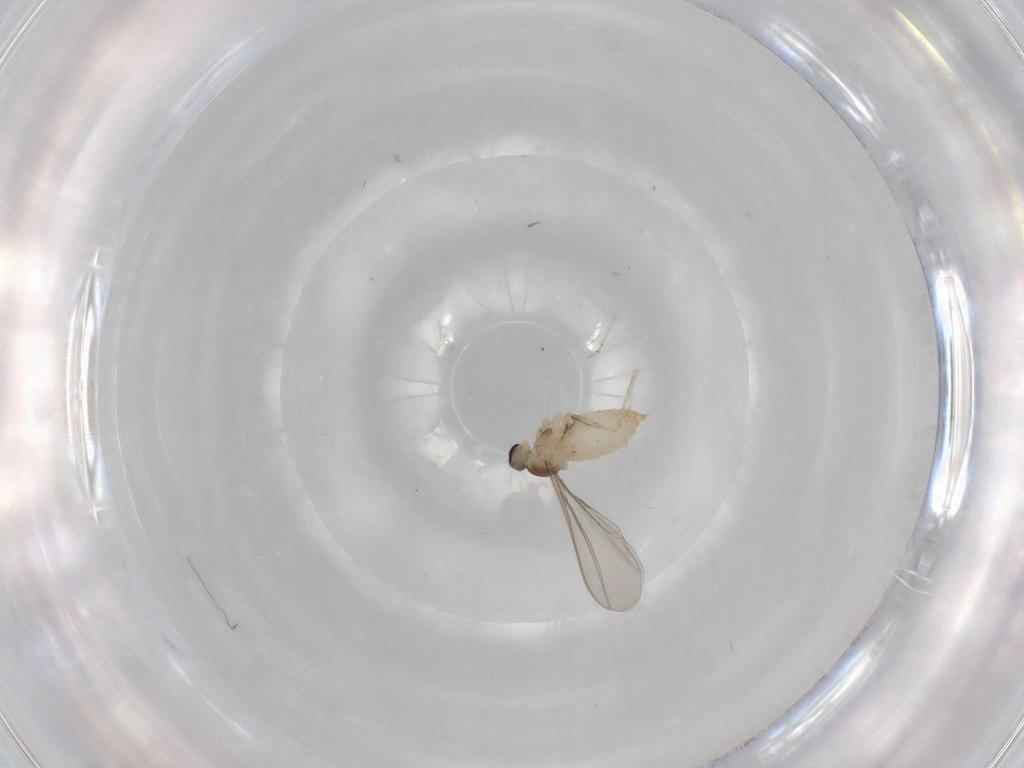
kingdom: Animalia
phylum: Arthropoda
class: Insecta
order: Diptera
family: Cecidomyiidae
